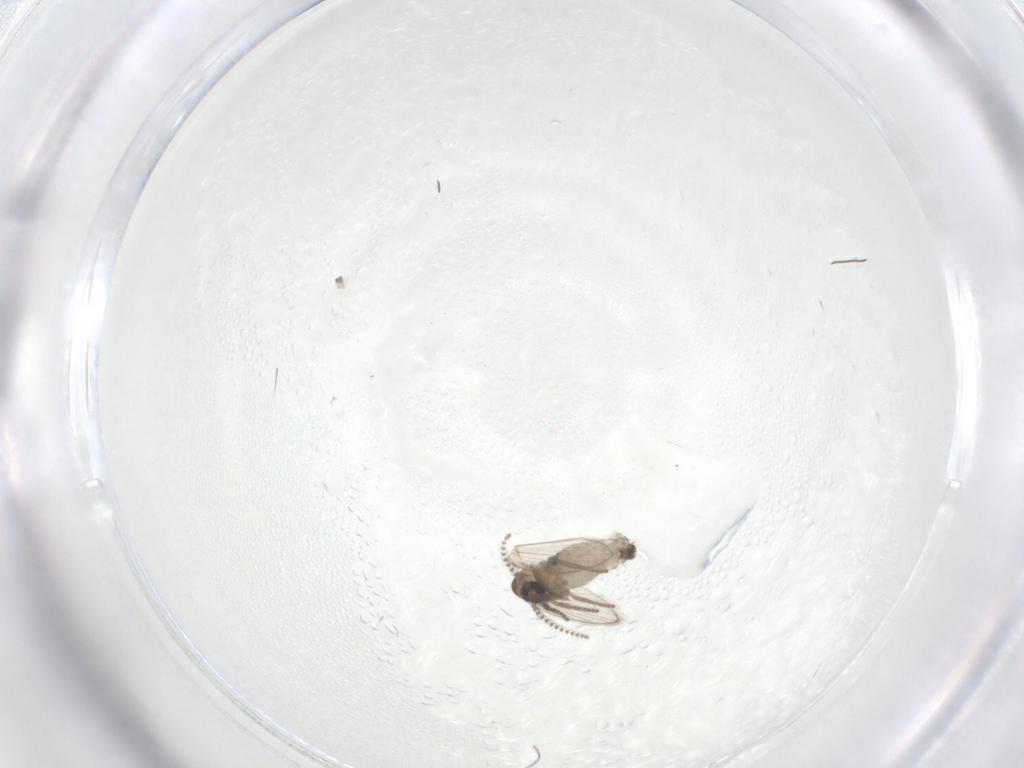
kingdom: Animalia
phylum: Arthropoda
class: Insecta
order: Diptera
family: Psychodidae
